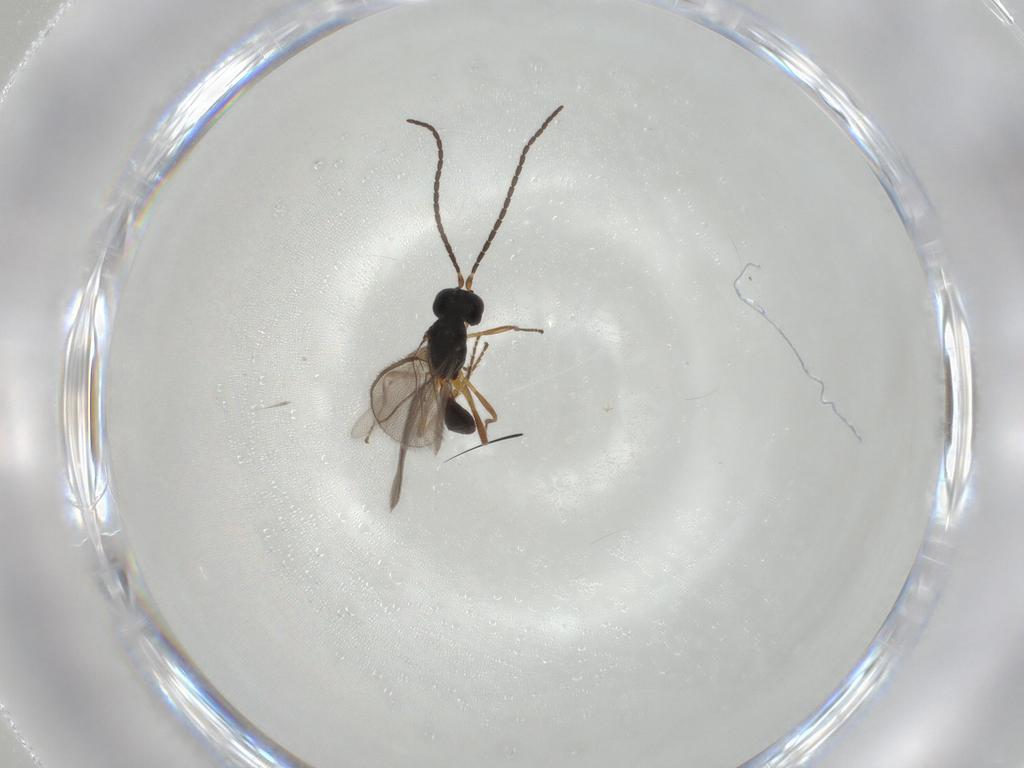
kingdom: Animalia
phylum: Arthropoda
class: Insecta
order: Hymenoptera
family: Braconidae
